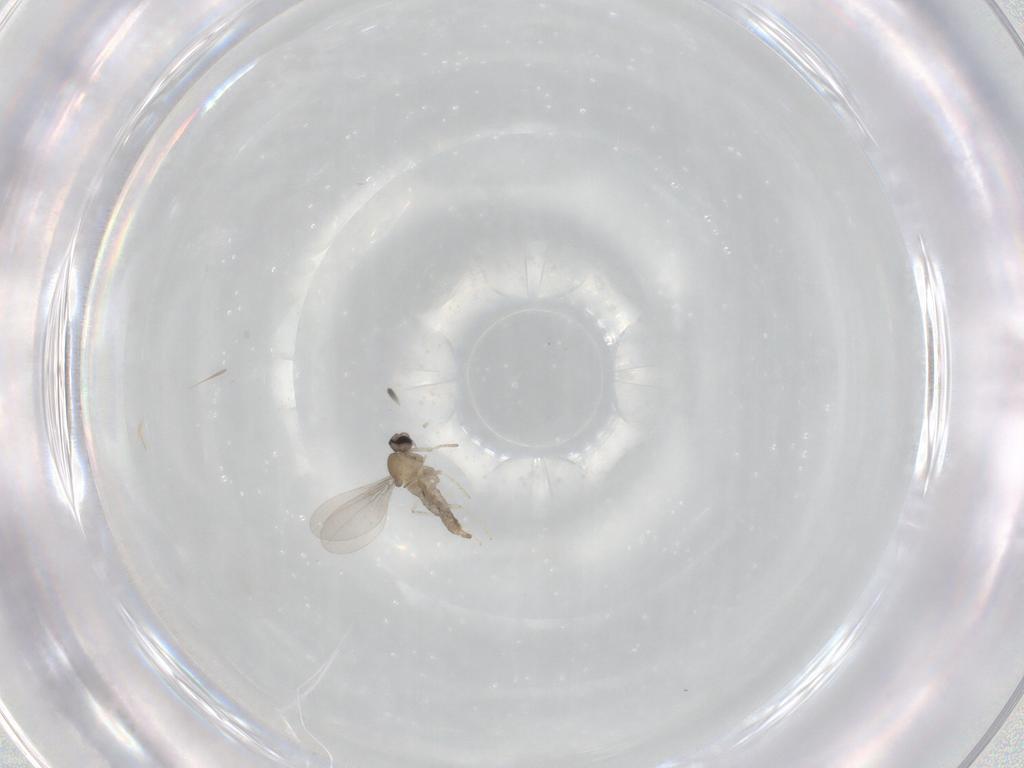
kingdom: Animalia
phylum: Arthropoda
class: Insecta
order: Diptera
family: Cecidomyiidae
